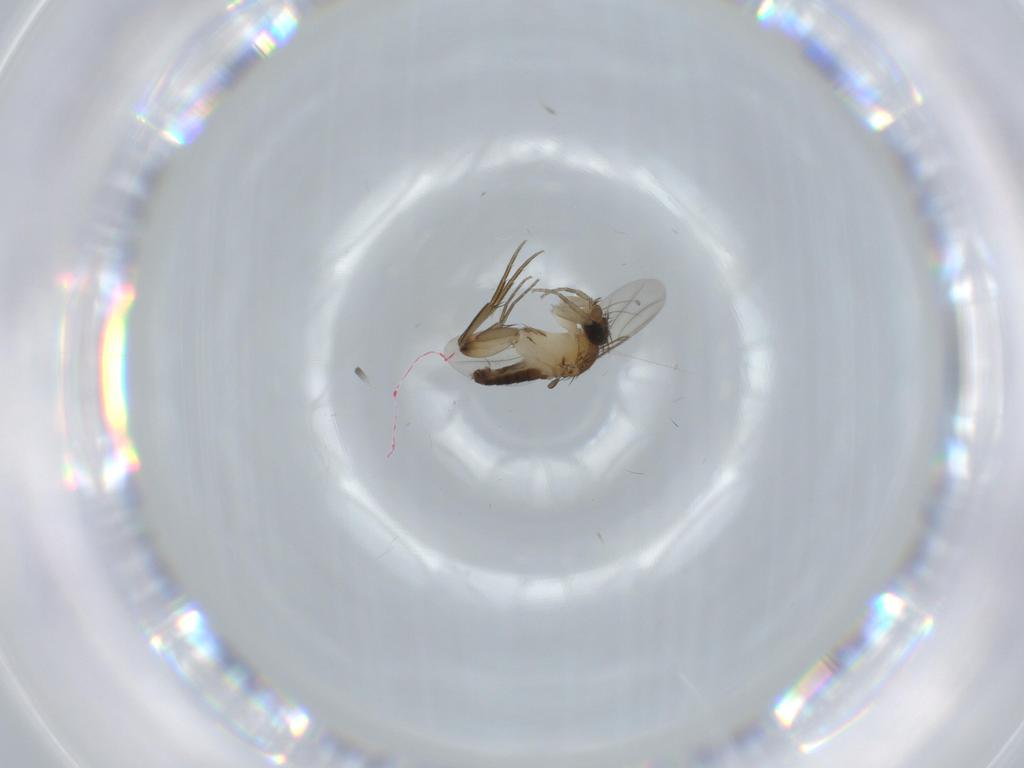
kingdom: Animalia
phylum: Arthropoda
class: Insecta
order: Diptera
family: Phoridae
